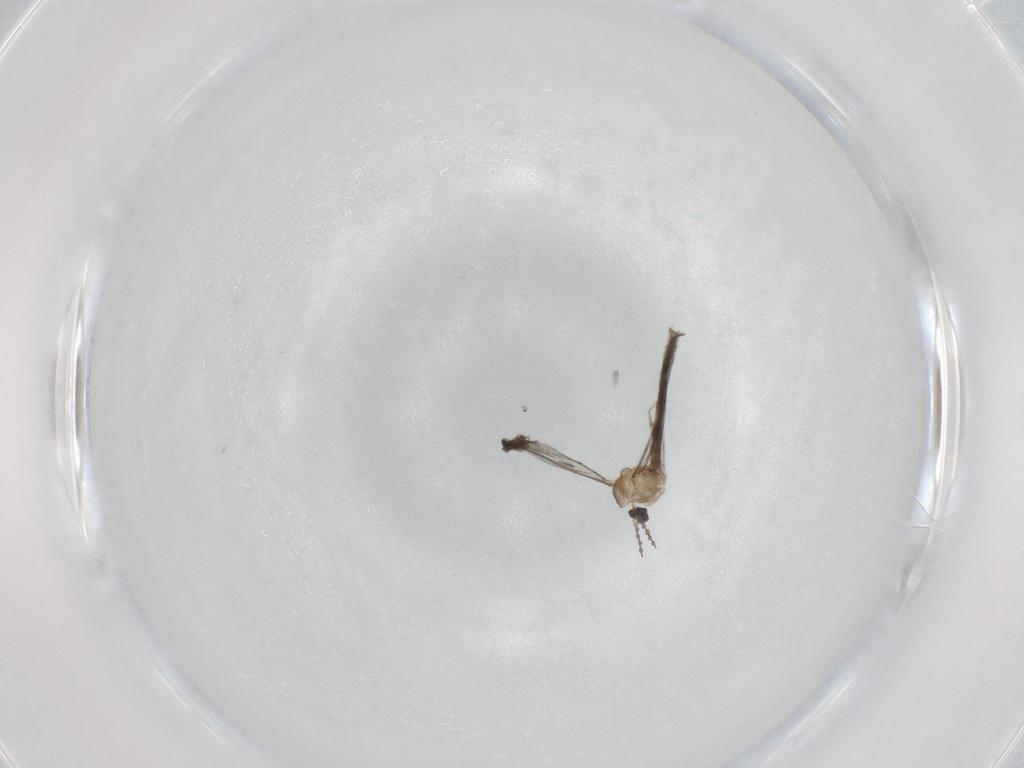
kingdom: Animalia
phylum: Arthropoda
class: Insecta
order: Diptera
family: Cecidomyiidae
